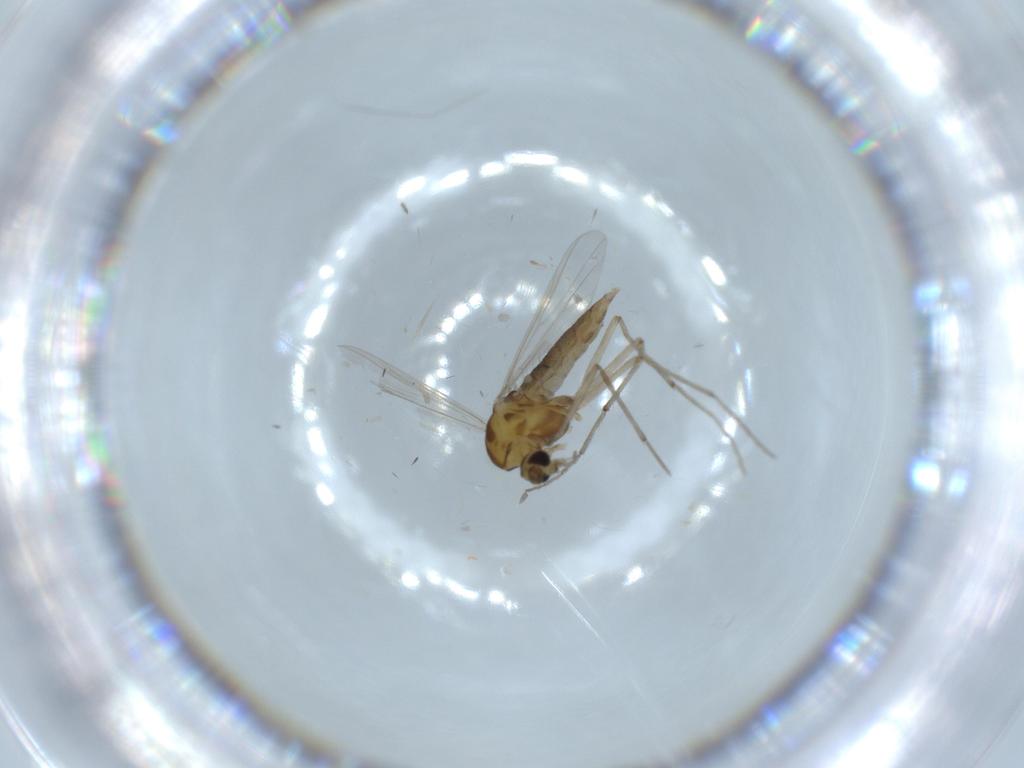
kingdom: Animalia
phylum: Arthropoda
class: Insecta
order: Diptera
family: Chironomidae
